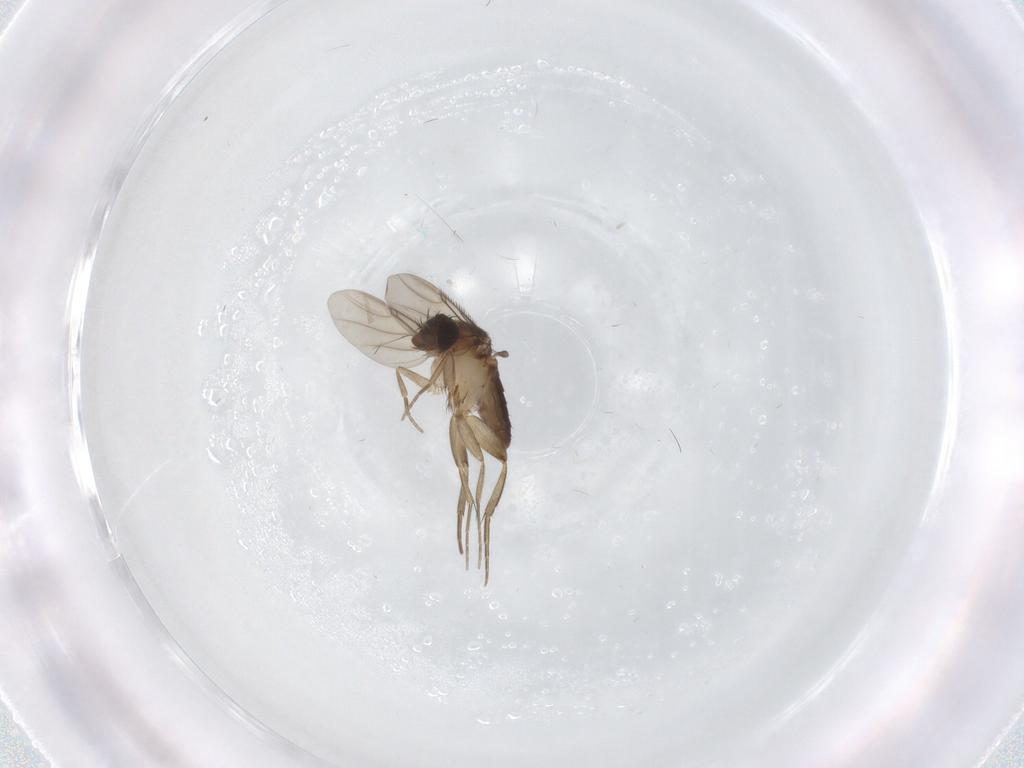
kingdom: Animalia
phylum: Arthropoda
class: Insecta
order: Diptera
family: Phoridae
